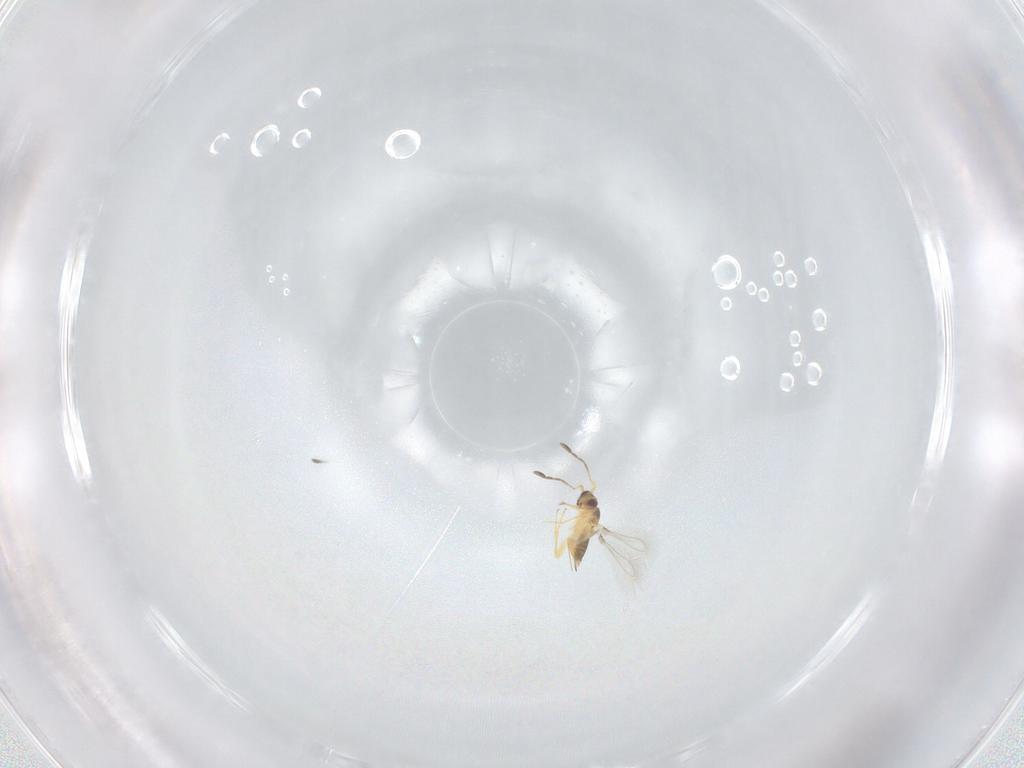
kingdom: Animalia
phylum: Arthropoda
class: Insecta
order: Hymenoptera
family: Mymaridae
